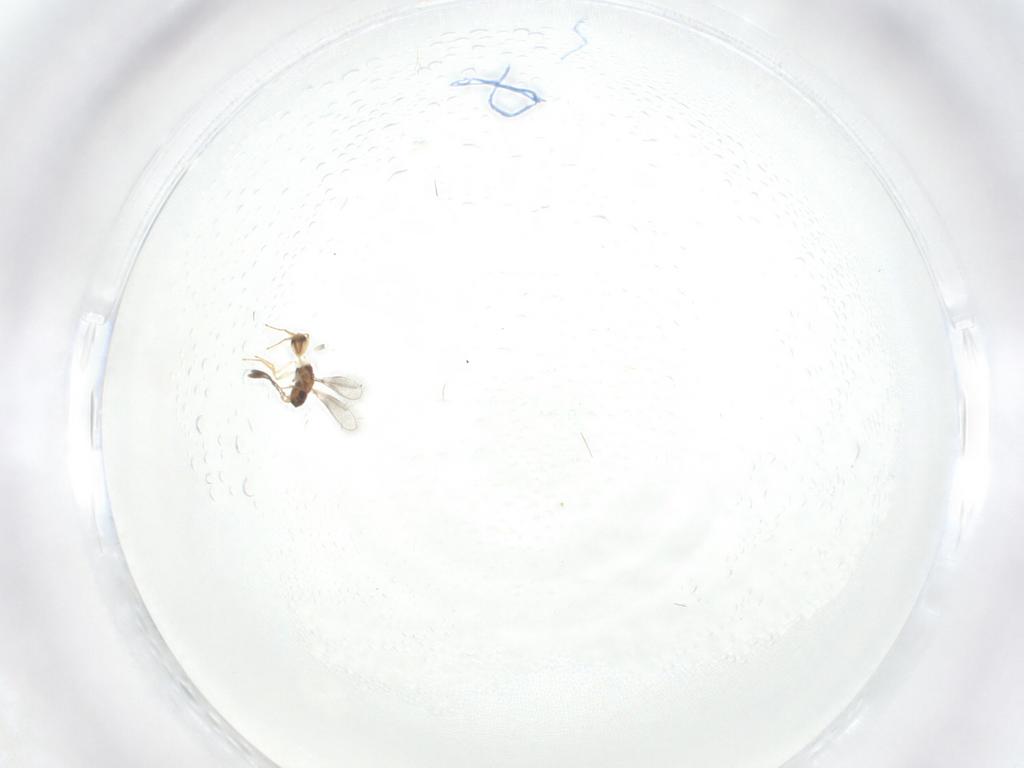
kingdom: Animalia
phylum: Arthropoda
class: Insecta
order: Hymenoptera
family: Mymaridae
